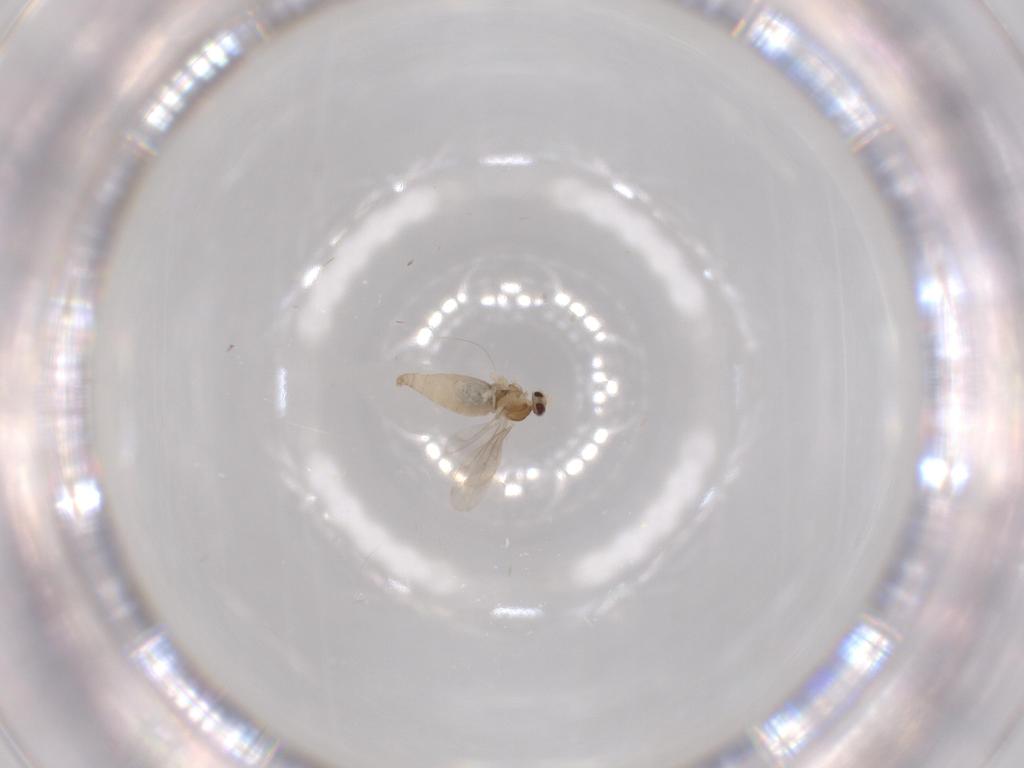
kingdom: Animalia
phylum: Arthropoda
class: Insecta
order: Diptera
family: Cecidomyiidae
